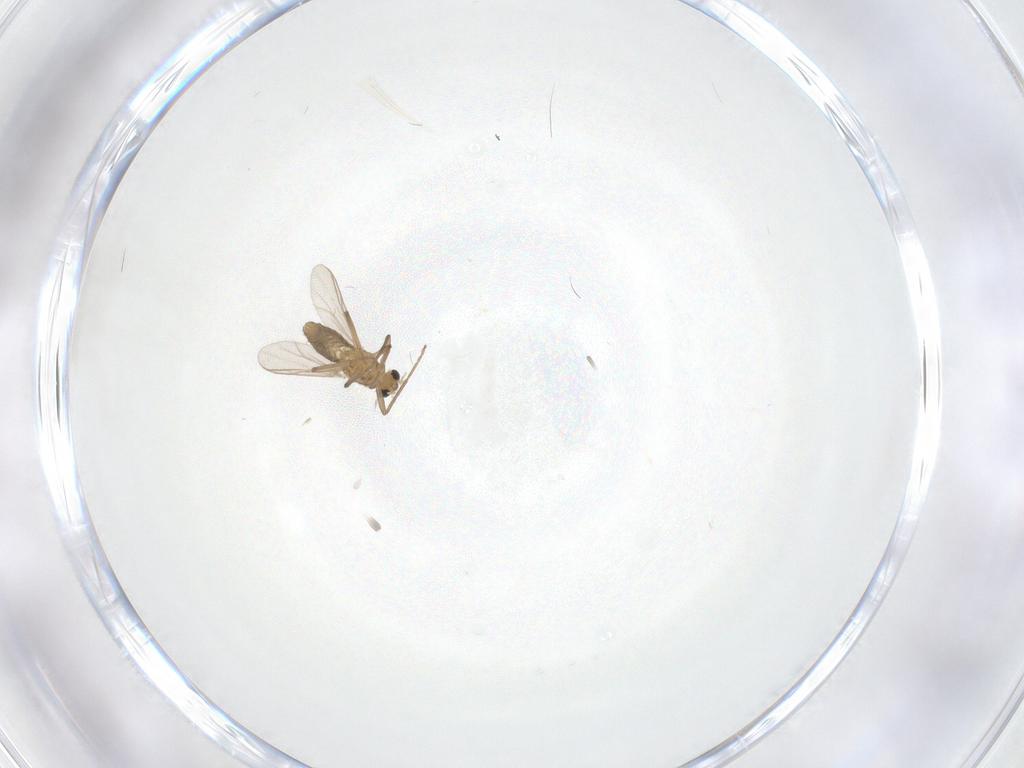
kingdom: Animalia
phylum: Arthropoda
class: Insecta
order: Diptera
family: Chironomidae
